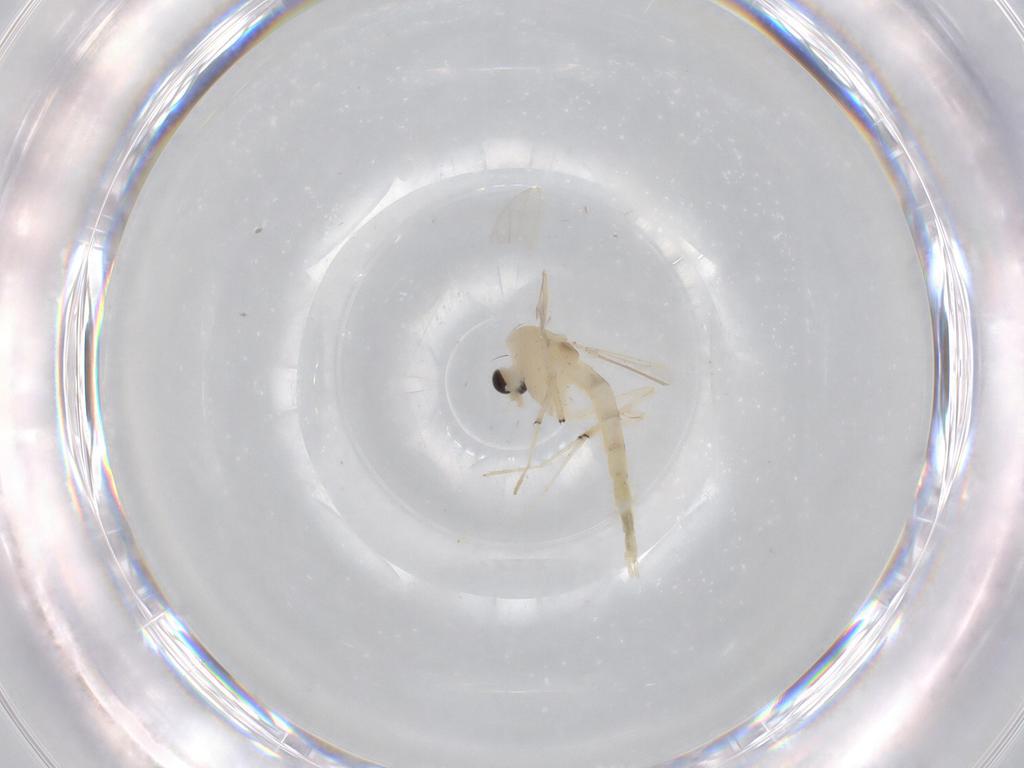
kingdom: Animalia
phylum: Arthropoda
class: Insecta
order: Diptera
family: Chironomidae
